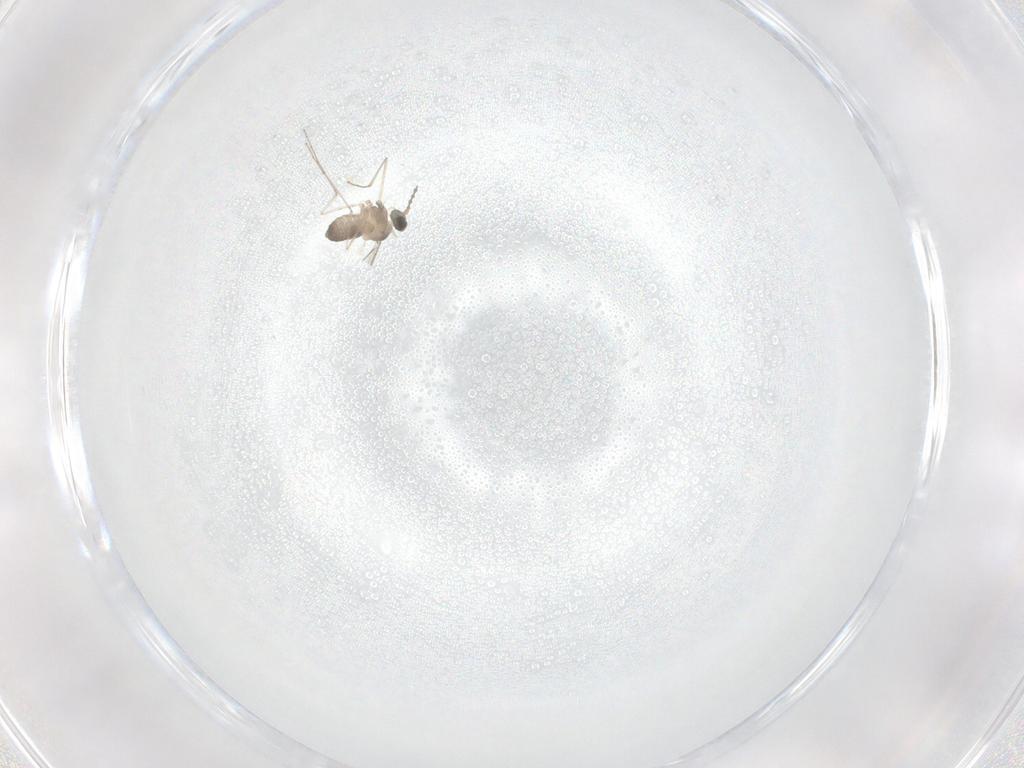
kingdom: Animalia
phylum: Arthropoda
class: Insecta
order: Diptera
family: Cecidomyiidae
